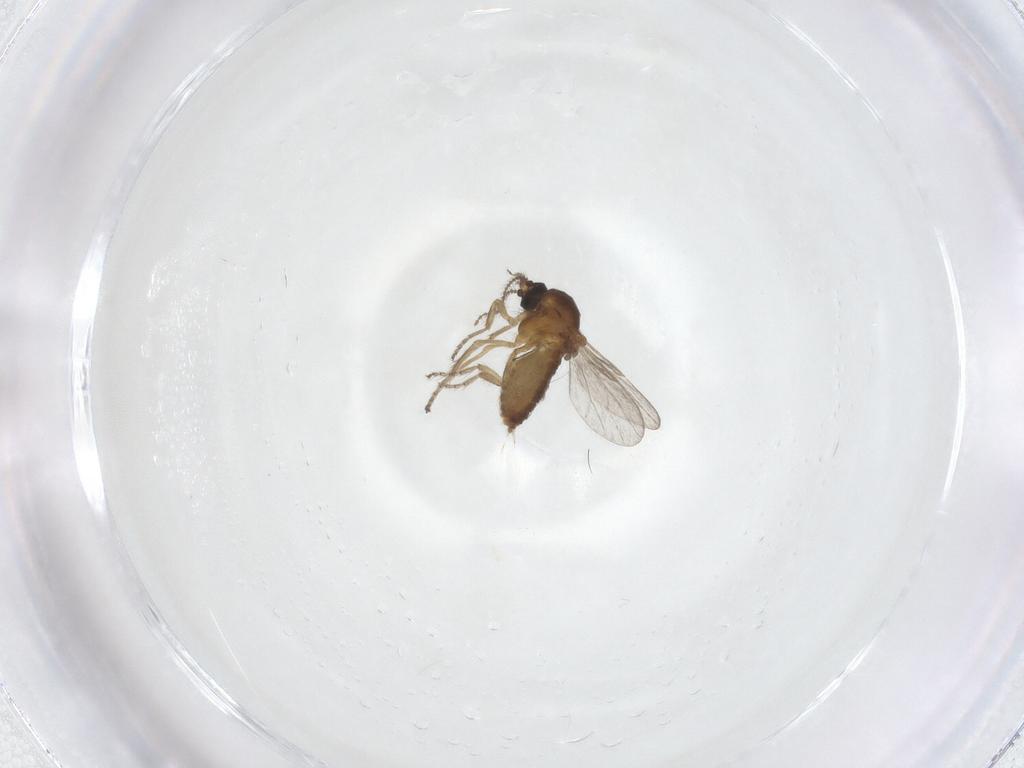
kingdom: Animalia
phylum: Arthropoda
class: Insecta
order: Diptera
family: Ceratopogonidae
